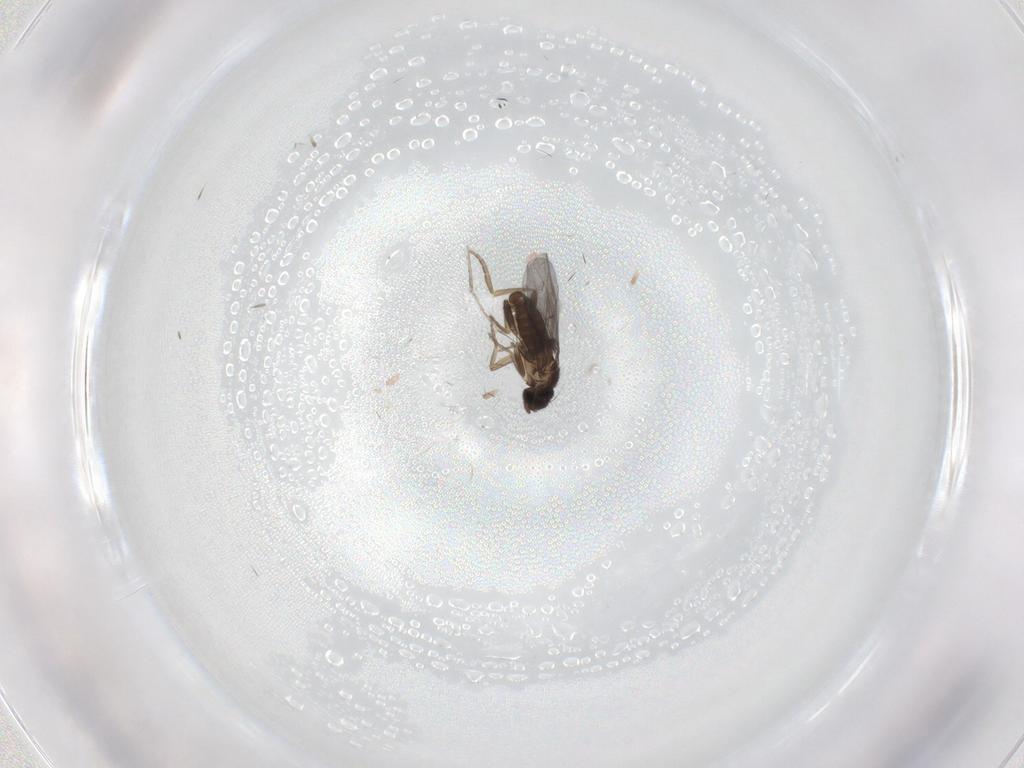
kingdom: Animalia
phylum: Arthropoda
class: Insecta
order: Diptera
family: Cecidomyiidae
